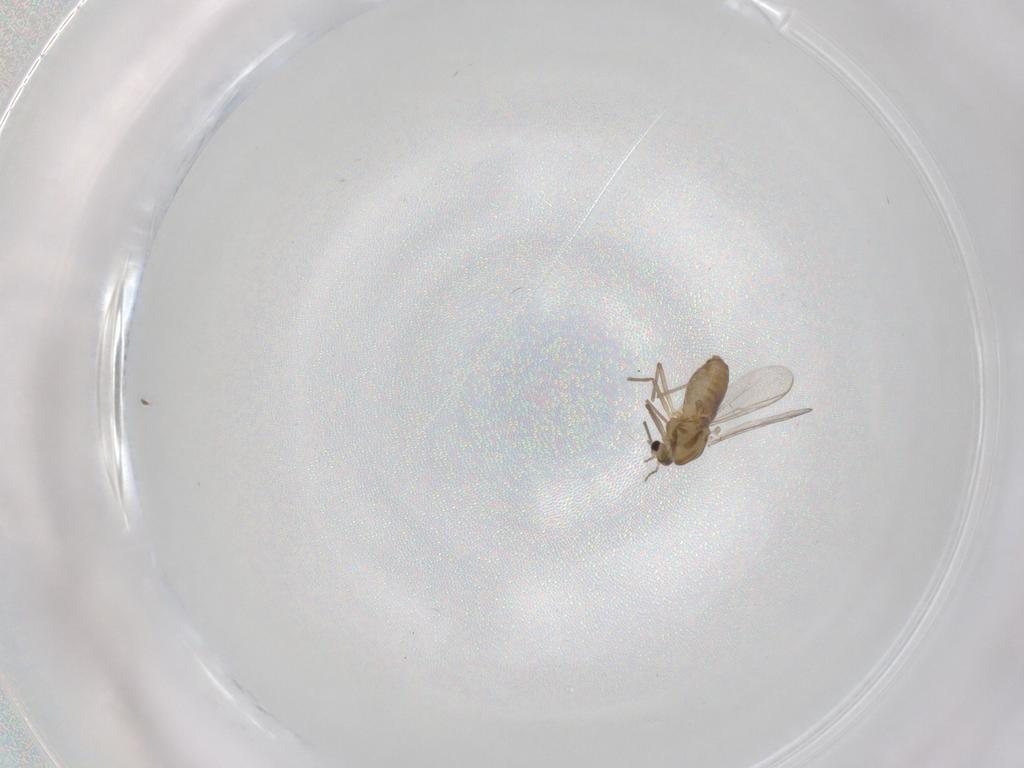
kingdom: Animalia
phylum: Arthropoda
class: Insecta
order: Diptera
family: Chironomidae
